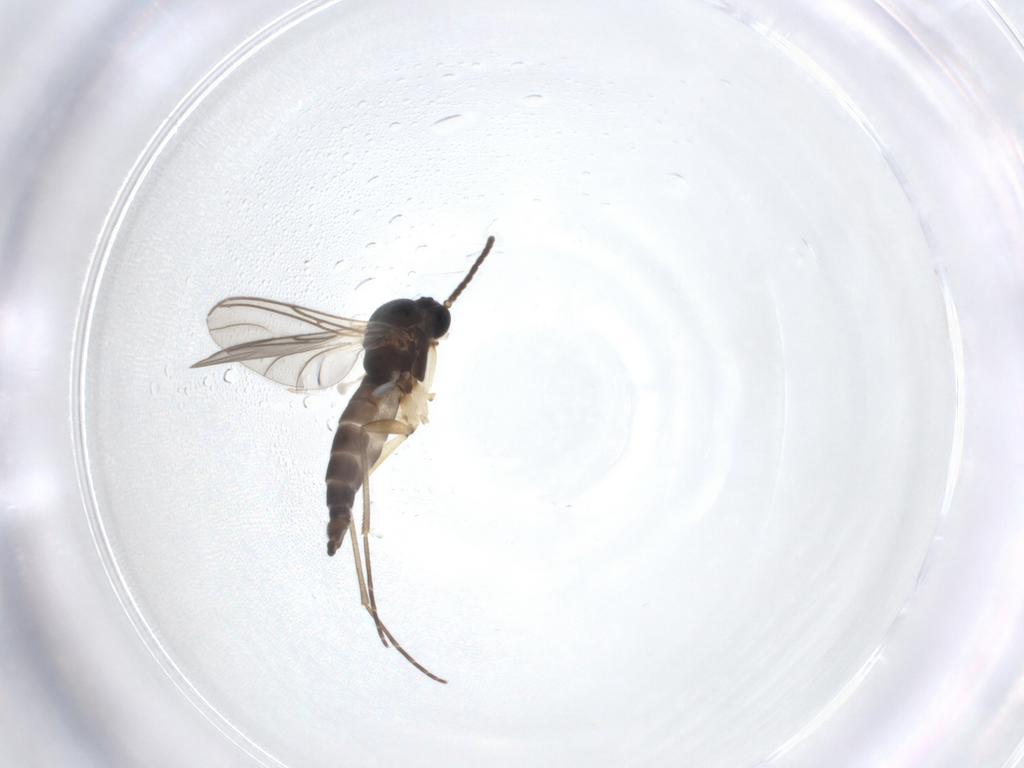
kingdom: Animalia
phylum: Arthropoda
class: Insecta
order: Diptera
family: Sciaridae
